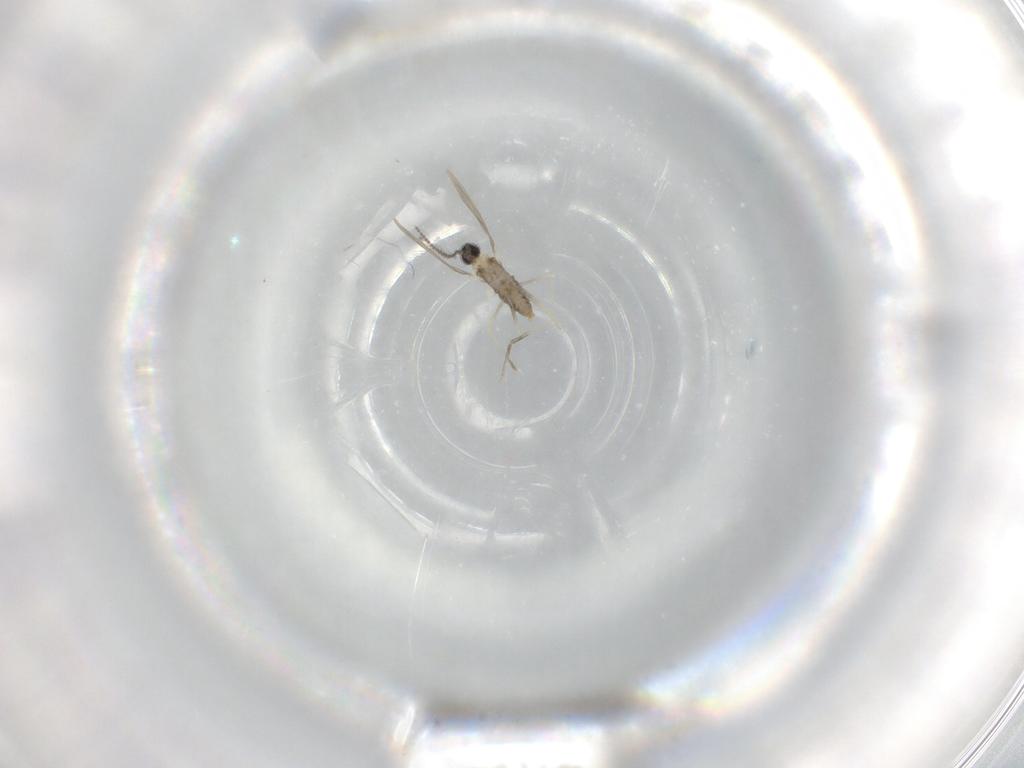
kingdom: Animalia
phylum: Arthropoda
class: Insecta
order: Diptera
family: Cecidomyiidae
